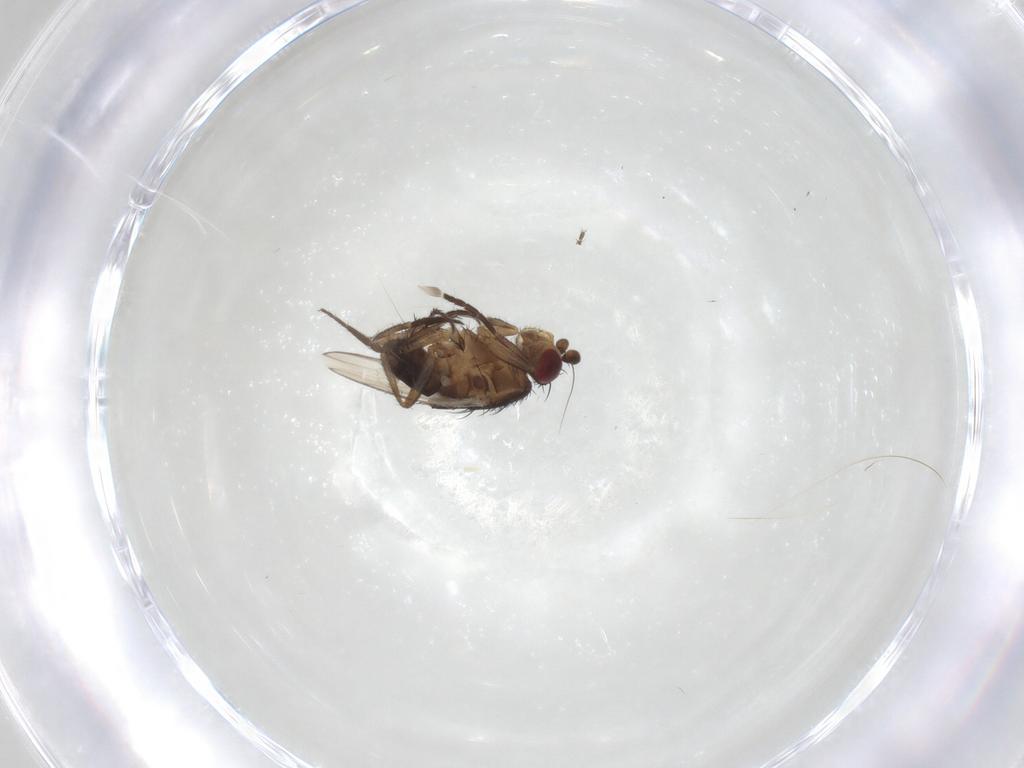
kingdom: Animalia
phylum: Arthropoda
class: Insecta
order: Diptera
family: Sphaeroceridae
